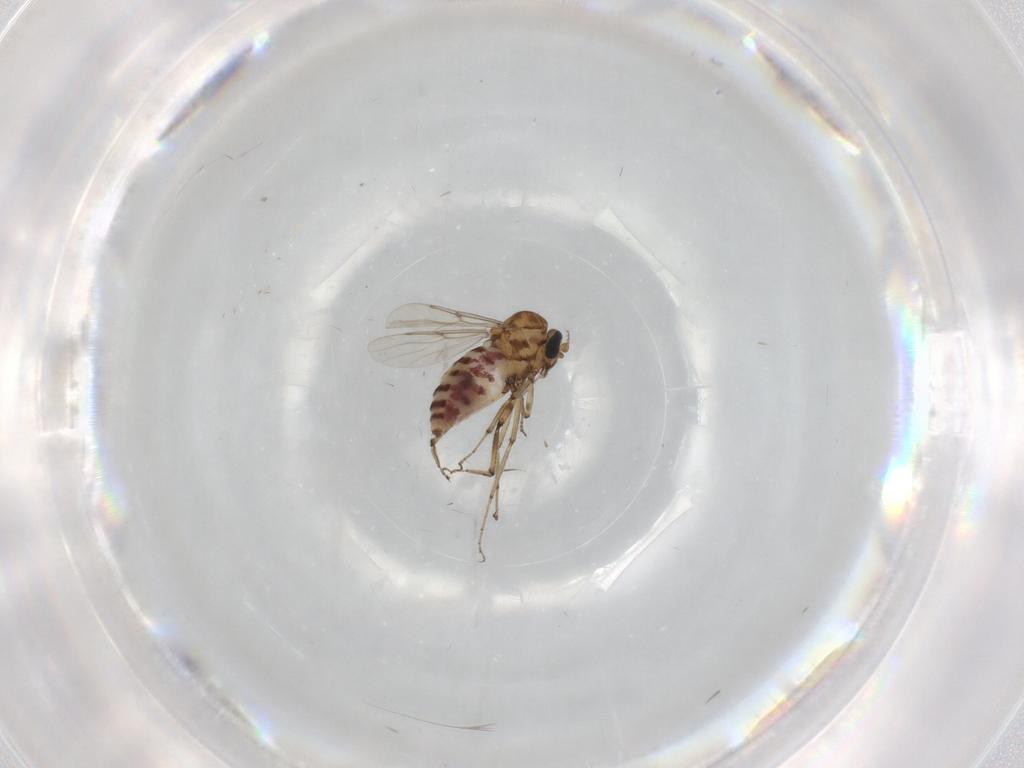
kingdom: Animalia
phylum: Arthropoda
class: Insecta
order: Diptera
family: Ceratopogonidae
